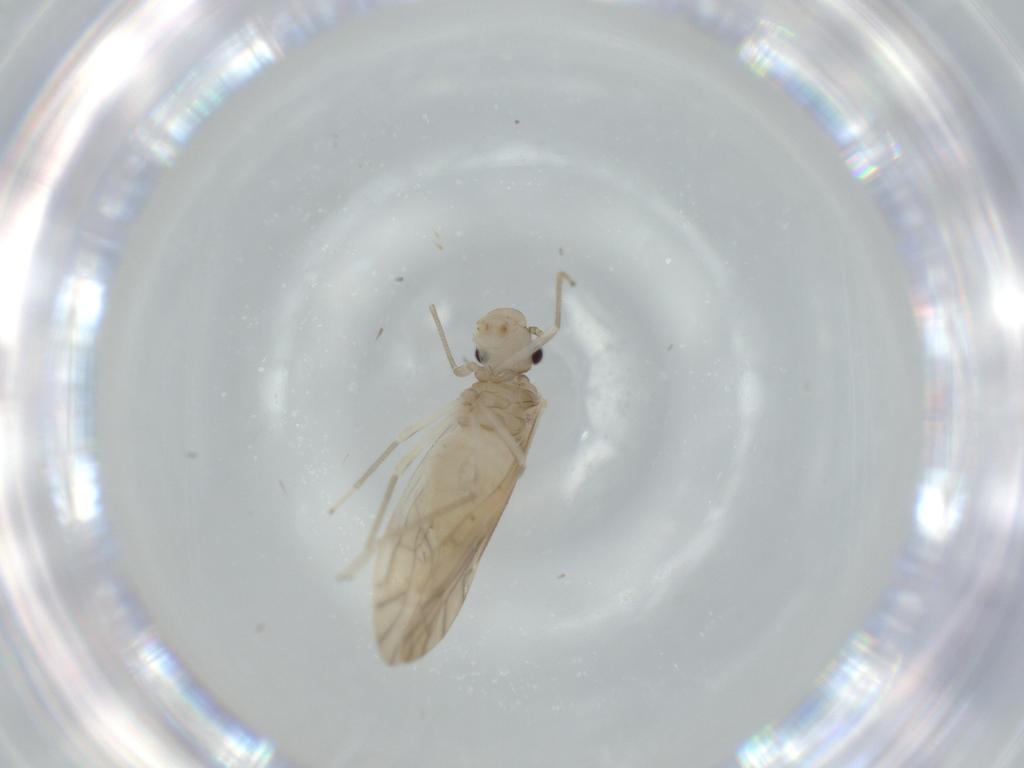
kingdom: Animalia
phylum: Arthropoda
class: Insecta
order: Psocodea
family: Caeciliusidae
